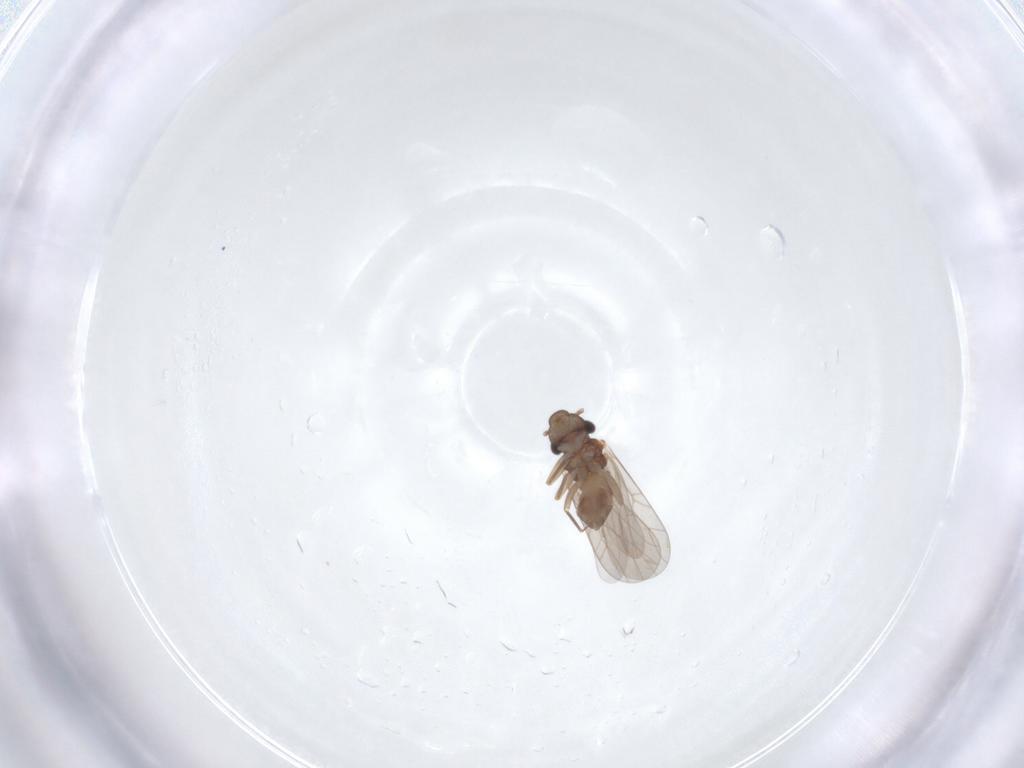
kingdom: Animalia
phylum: Arthropoda
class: Insecta
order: Psocodea
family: Lepidopsocidae
